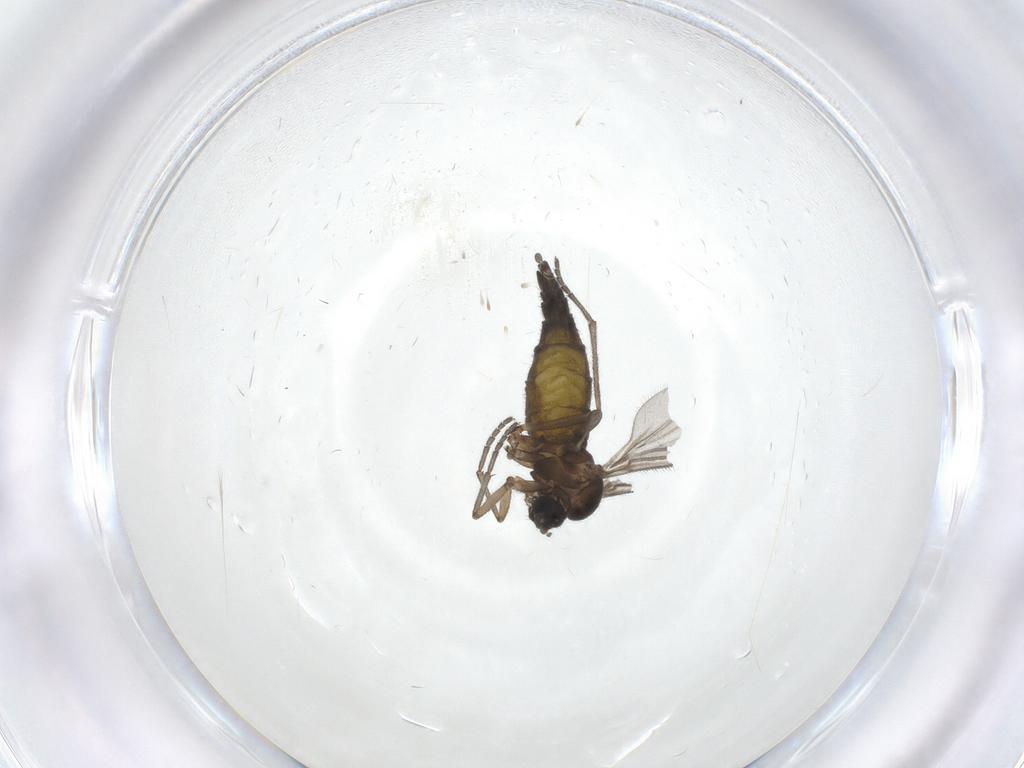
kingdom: Animalia
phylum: Arthropoda
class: Insecta
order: Diptera
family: Sciaridae
